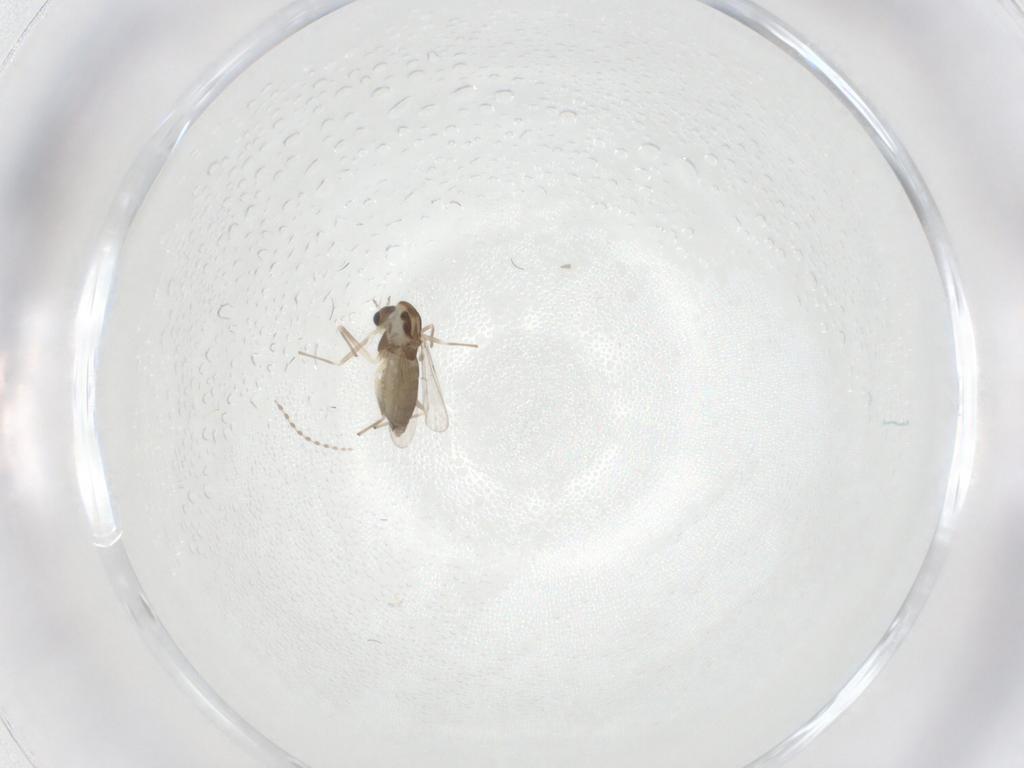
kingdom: Animalia
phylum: Arthropoda
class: Insecta
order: Diptera
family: Chironomidae
